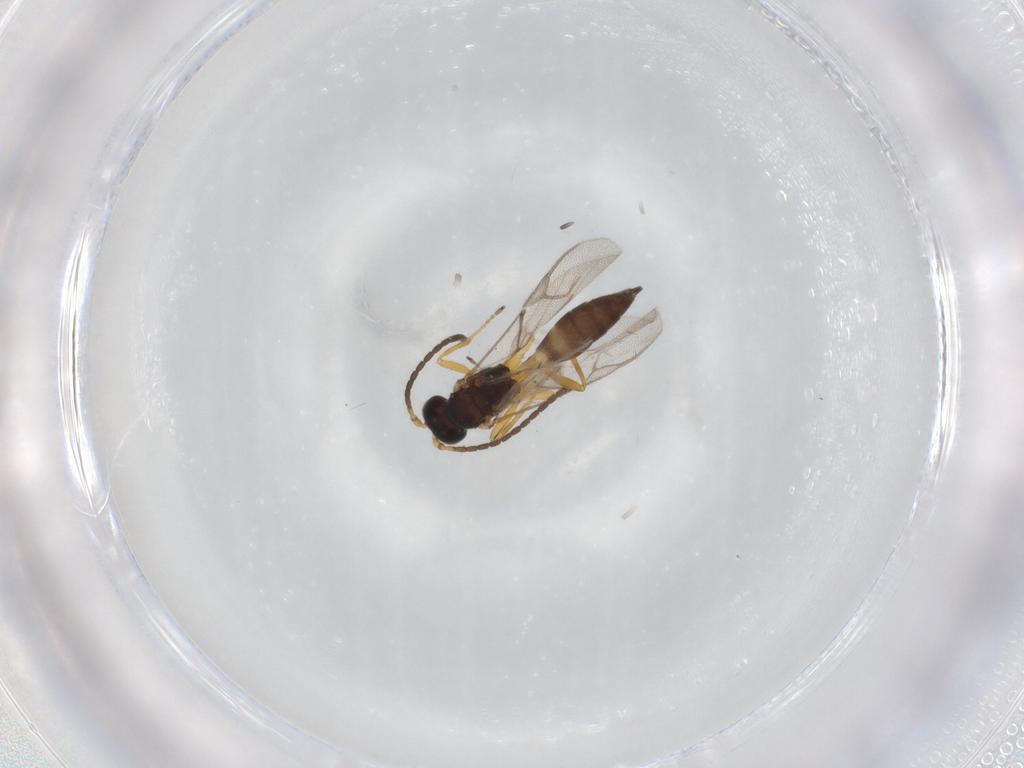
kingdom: Animalia
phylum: Arthropoda
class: Insecta
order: Hymenoptera
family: Braconidae
